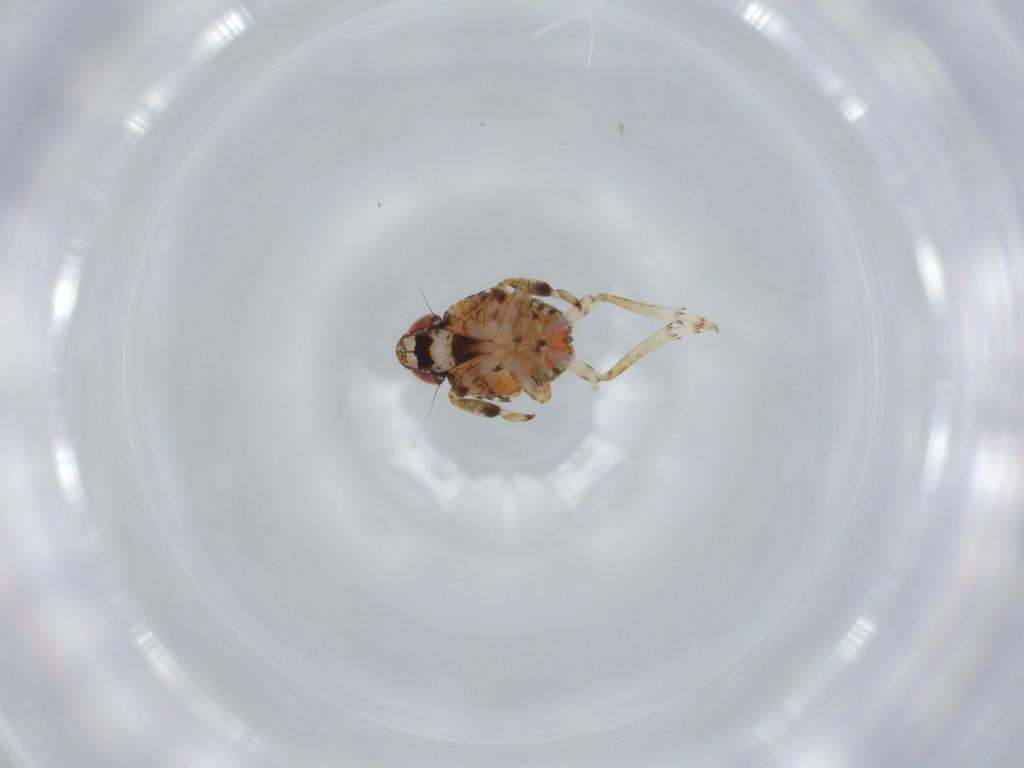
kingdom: Animalia
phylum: Arthropoda
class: Insecta
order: Hemiptera
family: Issidae
